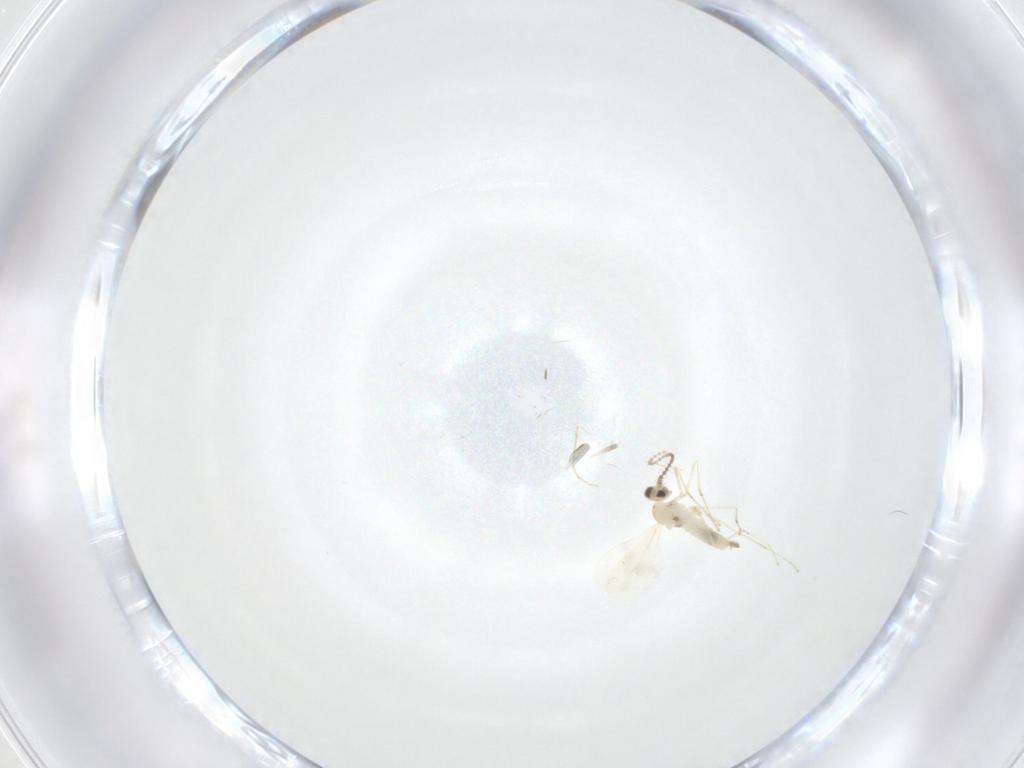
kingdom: Animalia
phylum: Arthropoda
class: Insecta
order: Diptera
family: Cecidomyiidae
